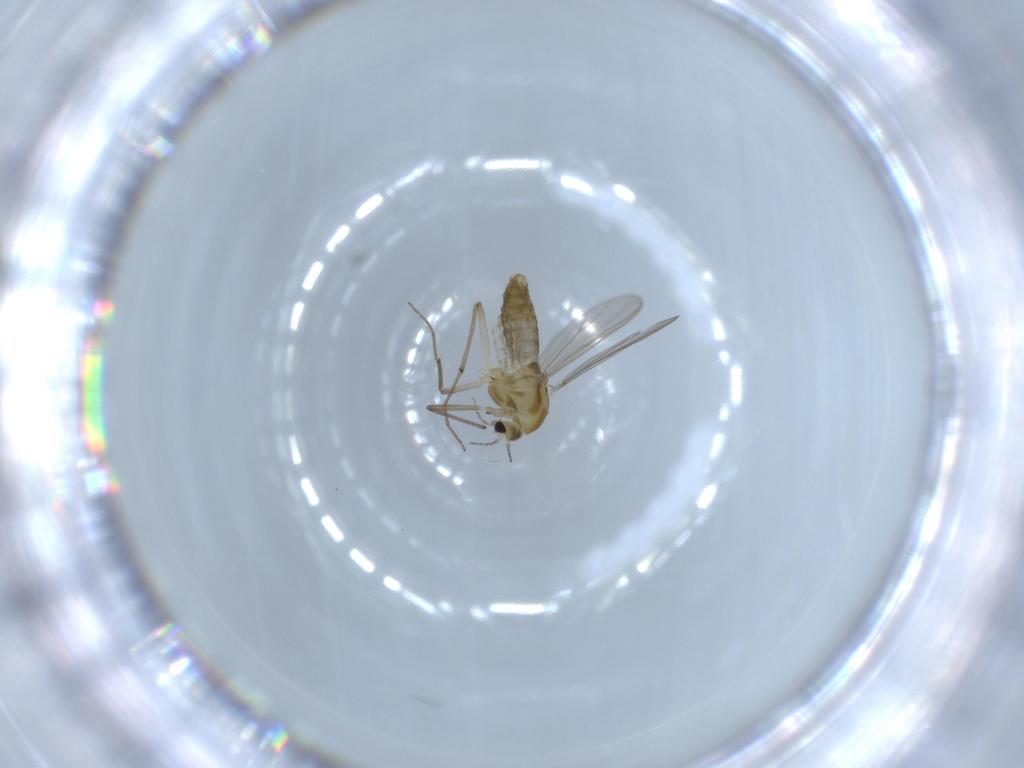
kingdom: Animalia
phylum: Arthropoda
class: Insecta
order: Diptera
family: Chironomidae
